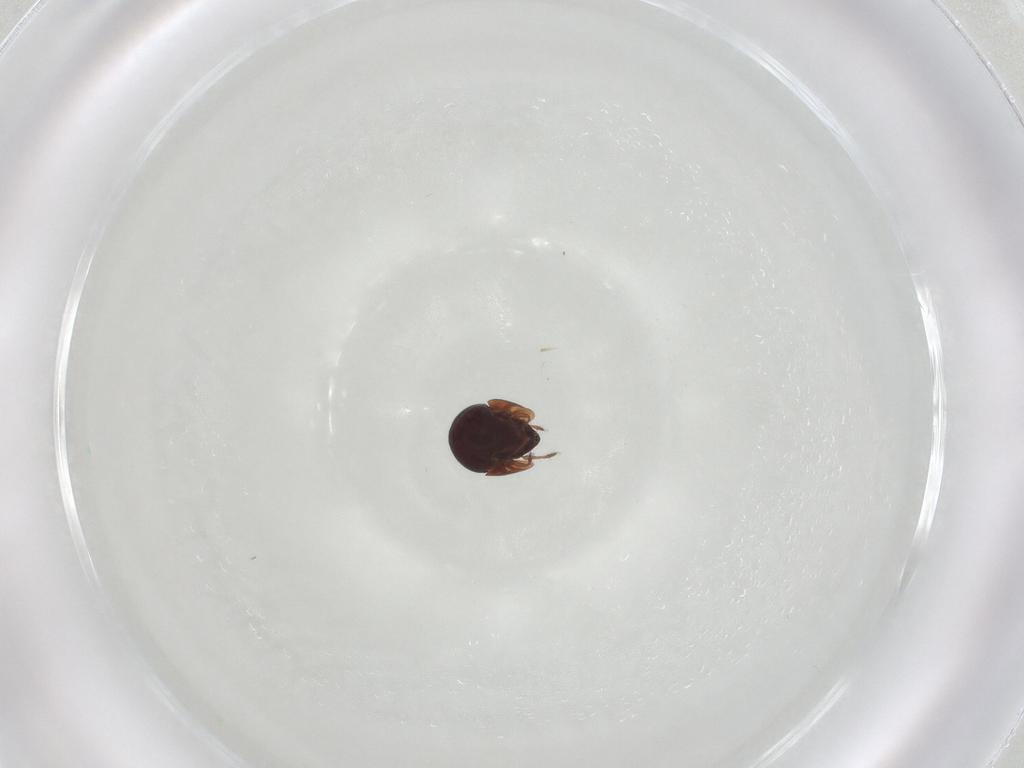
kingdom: Animalia
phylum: Arthropoda
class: Arachnida
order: Sarcoptiformes
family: Galumnidae
